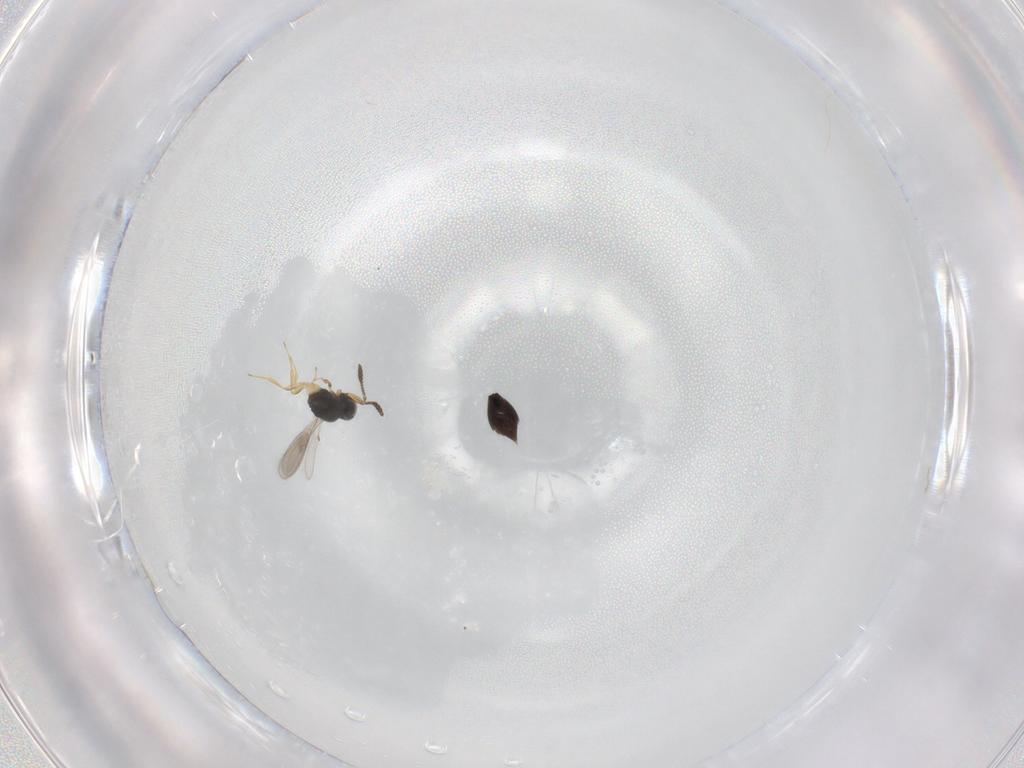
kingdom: Animalia
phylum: Arthropoda
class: Insecta
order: Hymenoptera
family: Scelionidae
